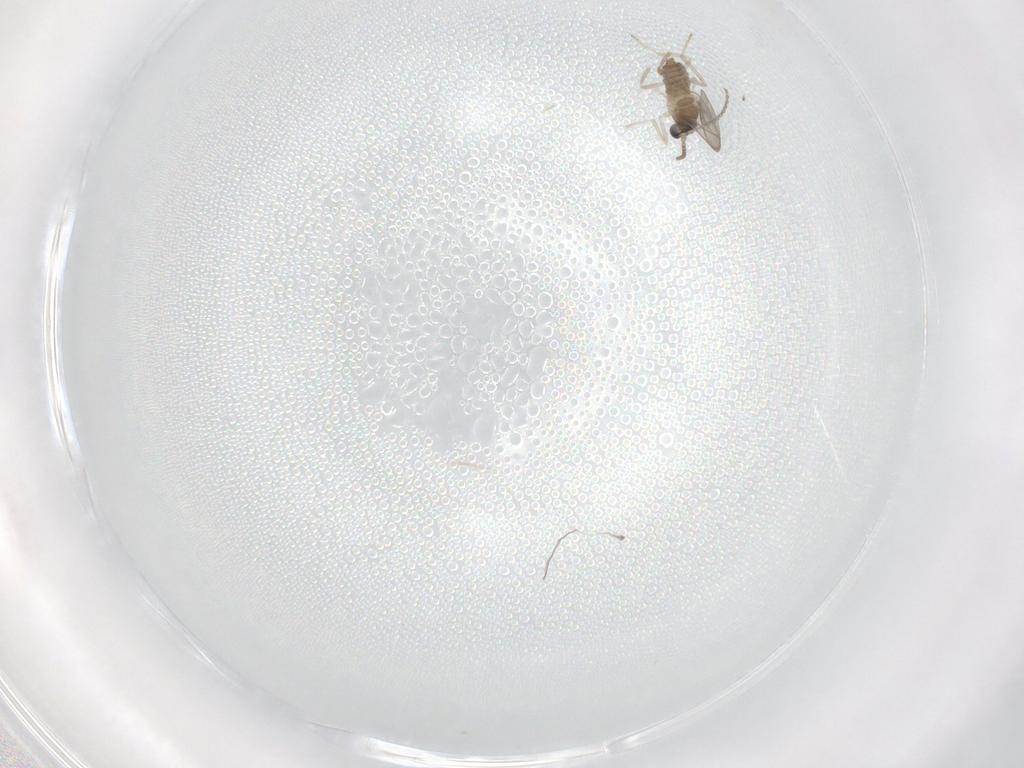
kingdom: Animalia
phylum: Arthropoda
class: Insecta
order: Diptera
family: Cecidomyiidae
